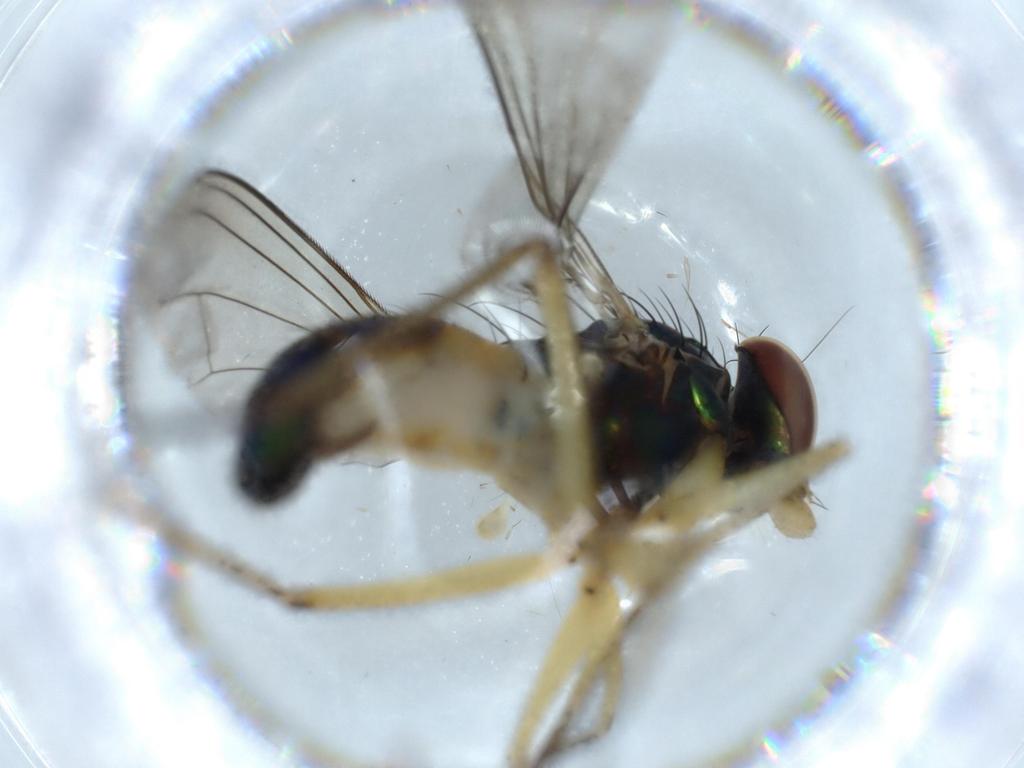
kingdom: Animalia
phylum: Arthropoda
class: Insecta
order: Diptera
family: Dolichopodidae
